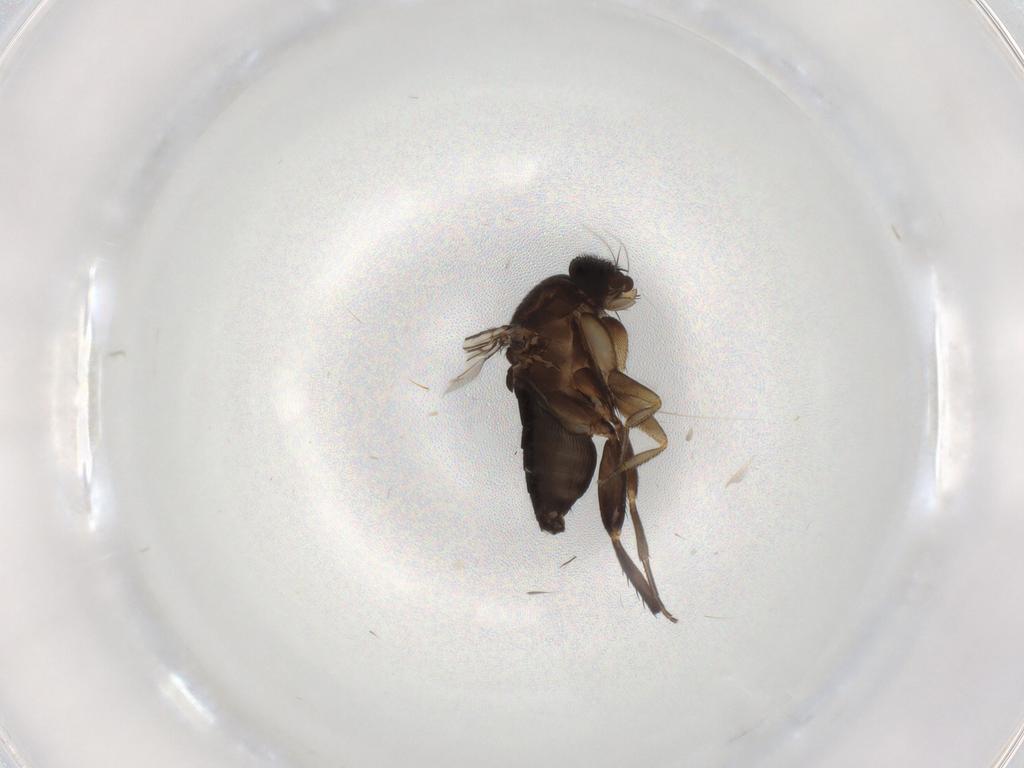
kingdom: Animalia
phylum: Arthropoda
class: Insecta
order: Diptera
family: Phoridae
